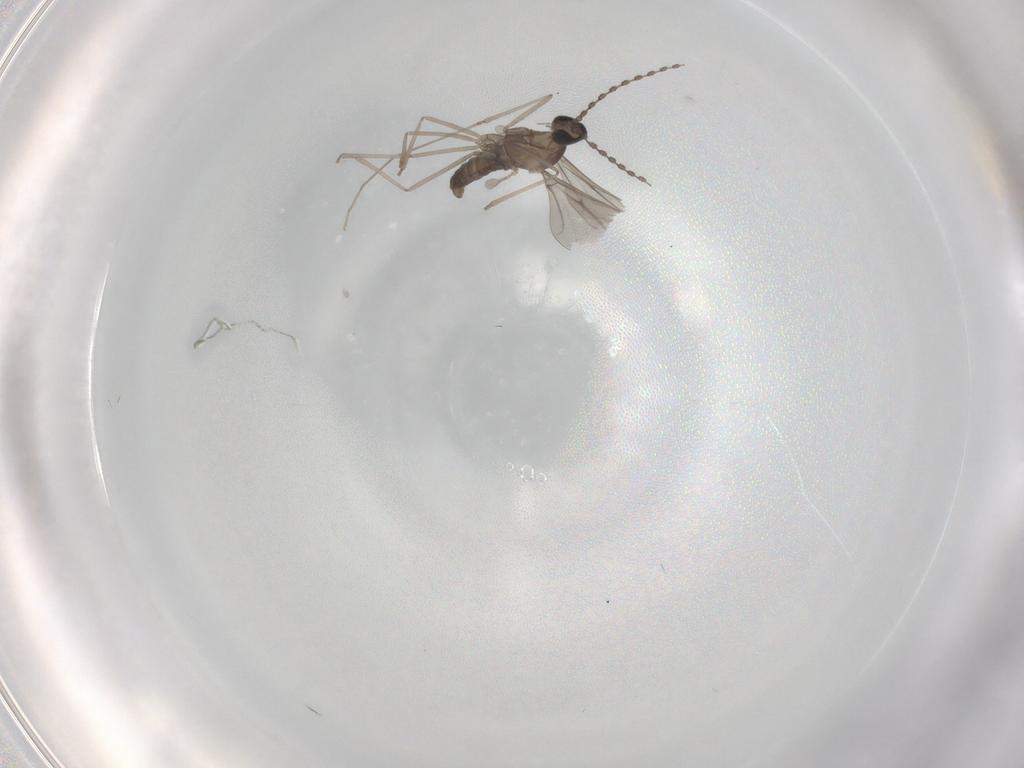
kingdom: Animalia
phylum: Arthropoda
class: Insecta
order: Diptera
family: Cecidomyiidae
